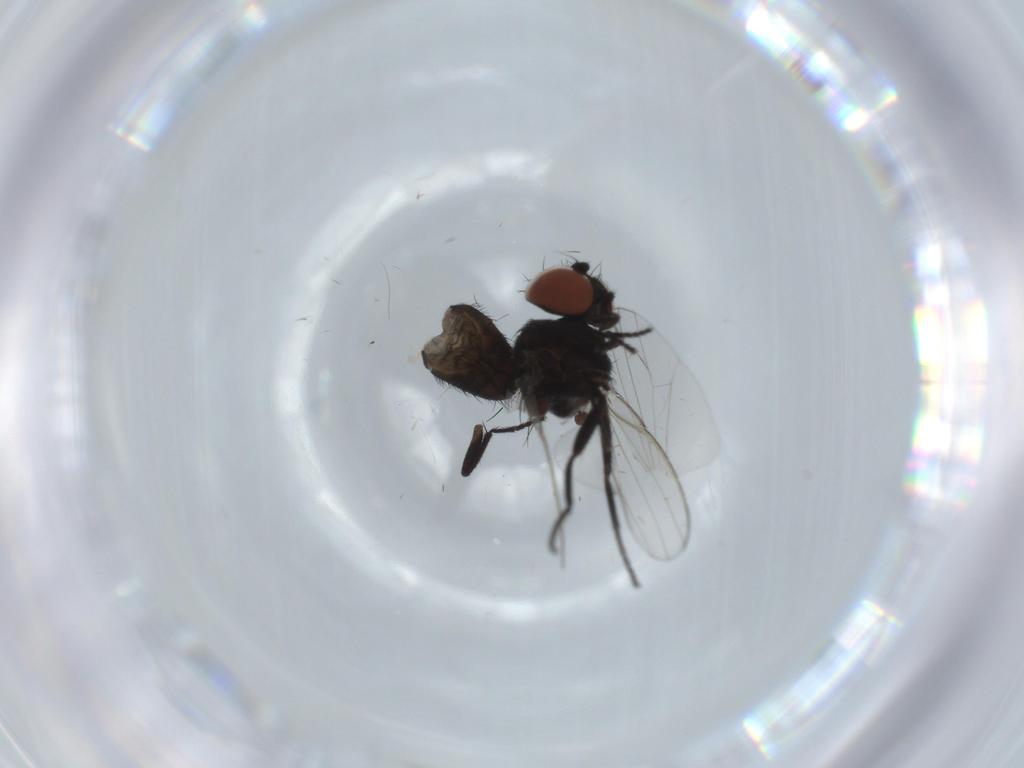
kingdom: Animalia
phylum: Arthropoda
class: Insecta
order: Diptera
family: Milichiidae
